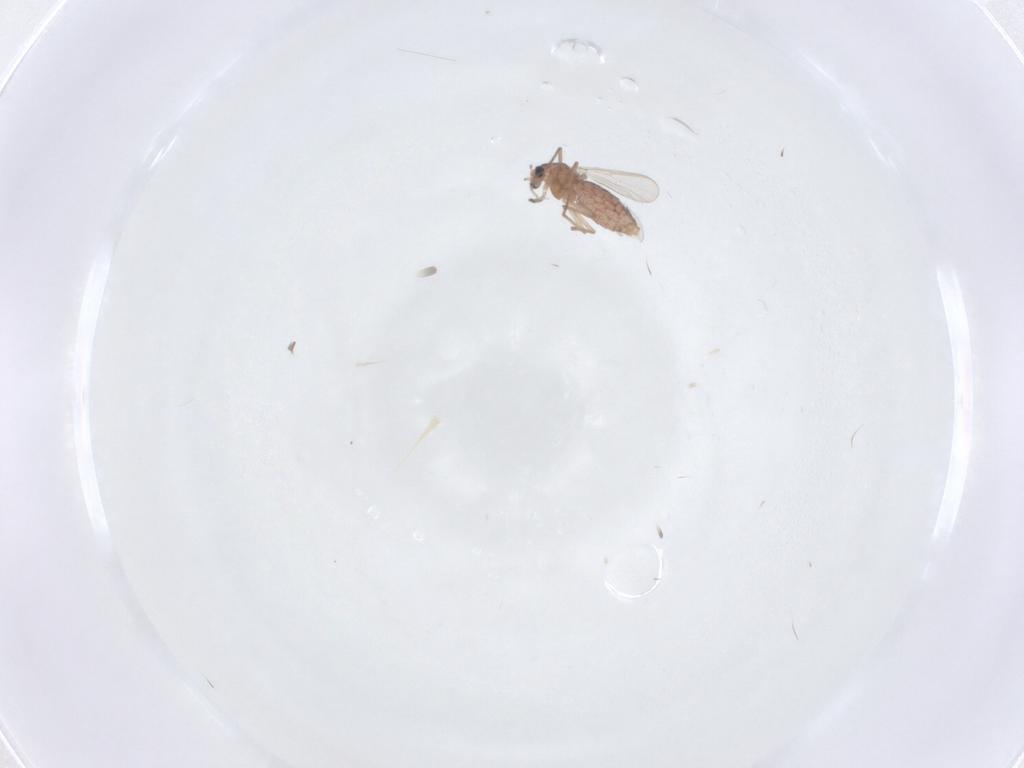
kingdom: Animalia
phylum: Arthropoda
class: Insecta
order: Diptera
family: Chironomidae
